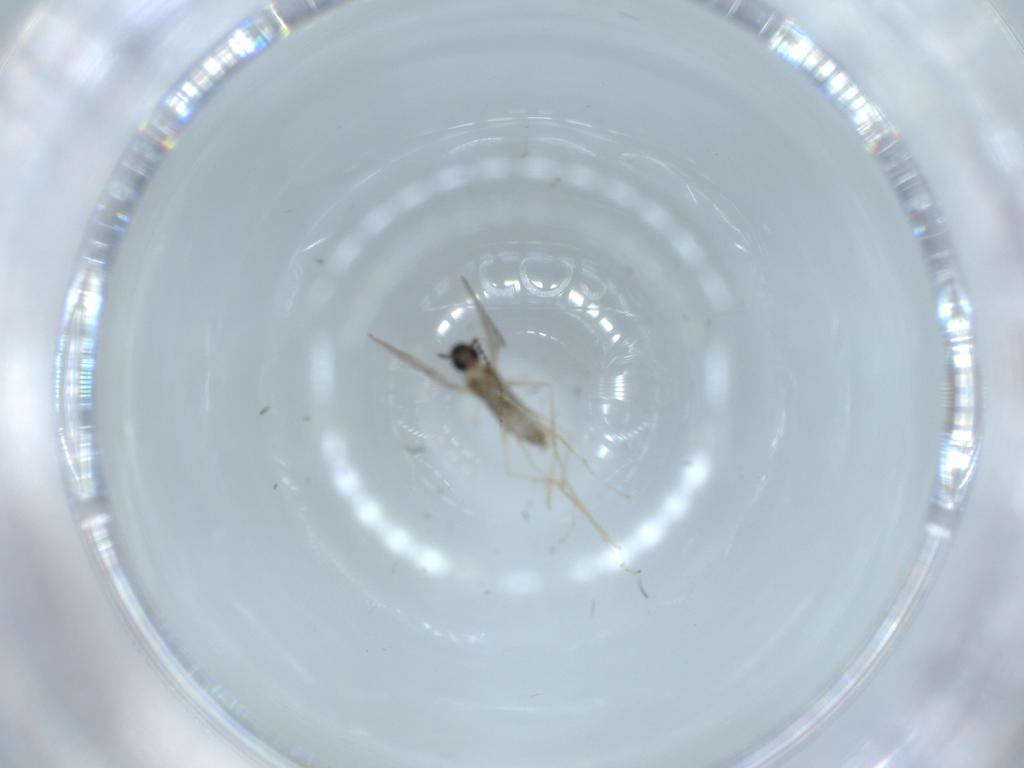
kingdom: Animalia
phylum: Arthropoda
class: Insecta
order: Diptera
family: Cecidomyiidae
